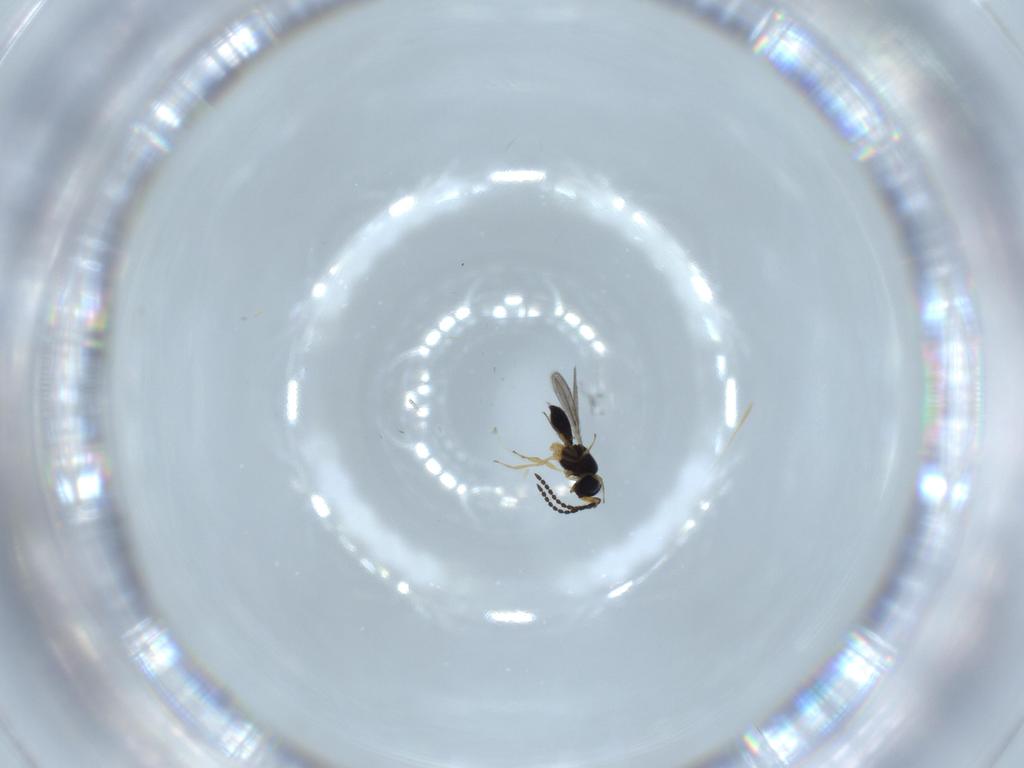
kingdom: Animalia
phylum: Arthropoda
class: Insecta
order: Hymenoptera
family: Scelionidae
